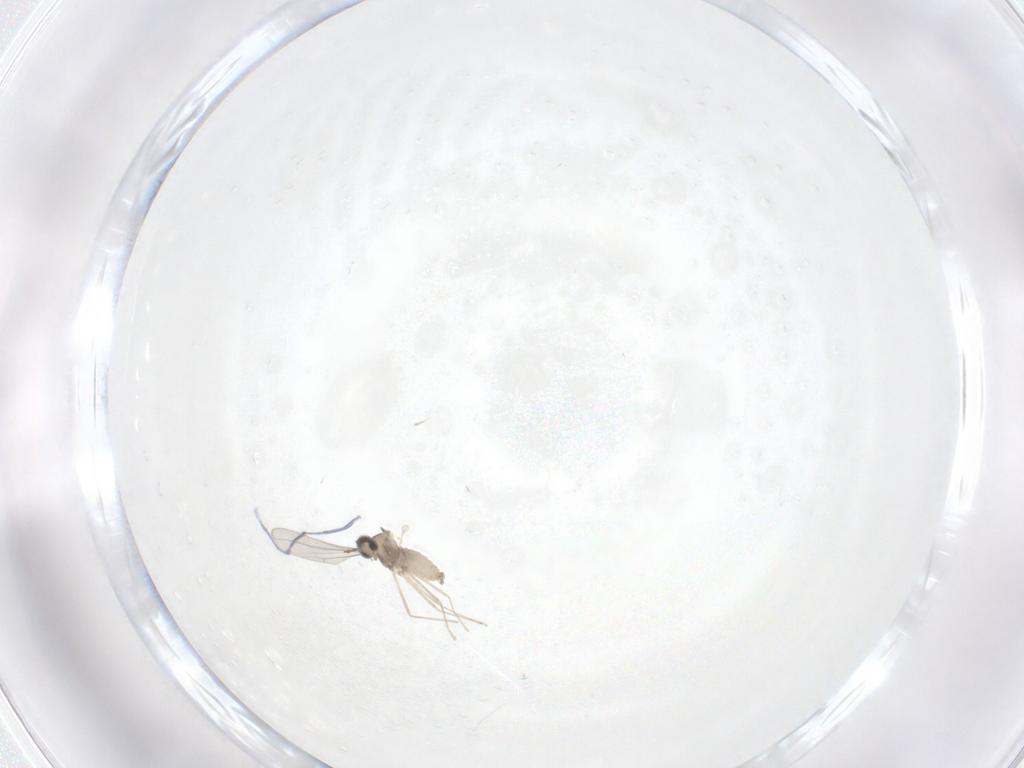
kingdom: Animalia
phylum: Arthropoda
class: Insecta
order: Diptera
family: Cecidomyiidae
